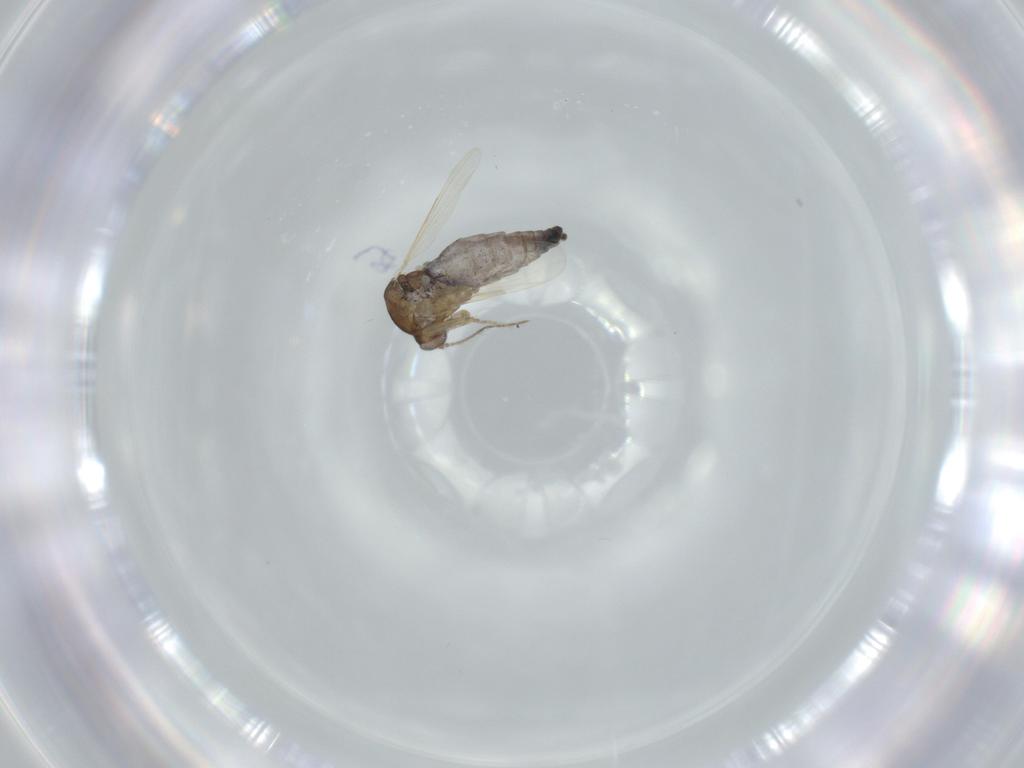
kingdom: Animalia
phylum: Arthropoda
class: Insecta
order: Diptera
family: Ceratopogonidae
